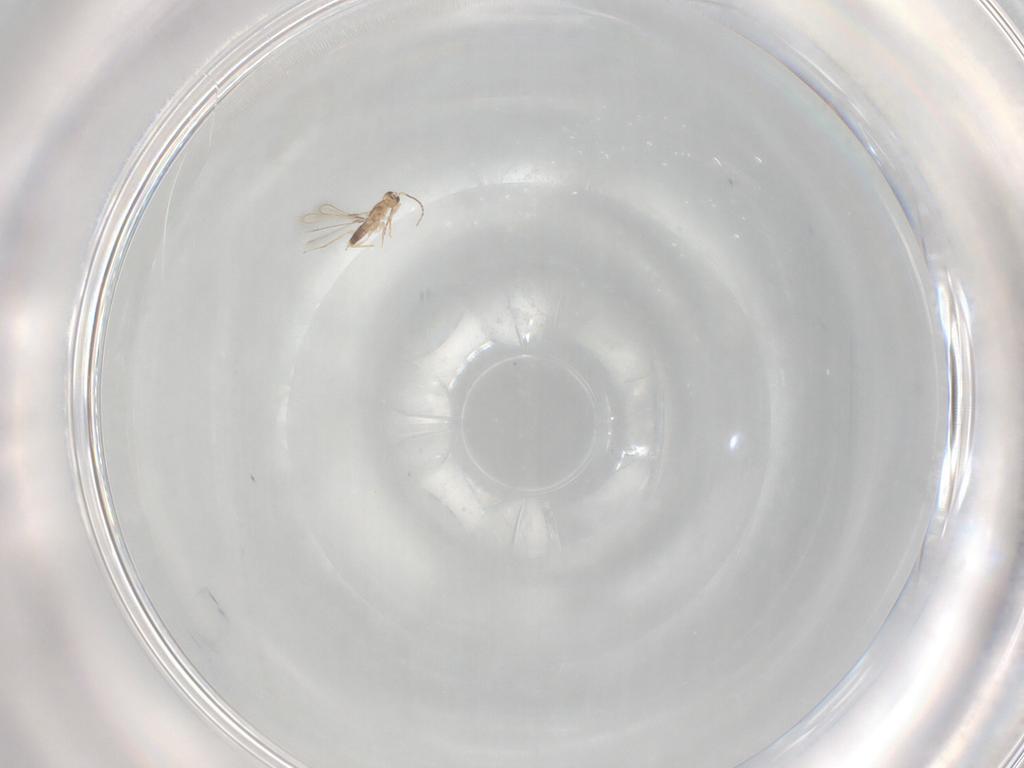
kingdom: Animalia
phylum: Arthropoda
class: Insecta
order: Hymenoptera
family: Mymaridae
